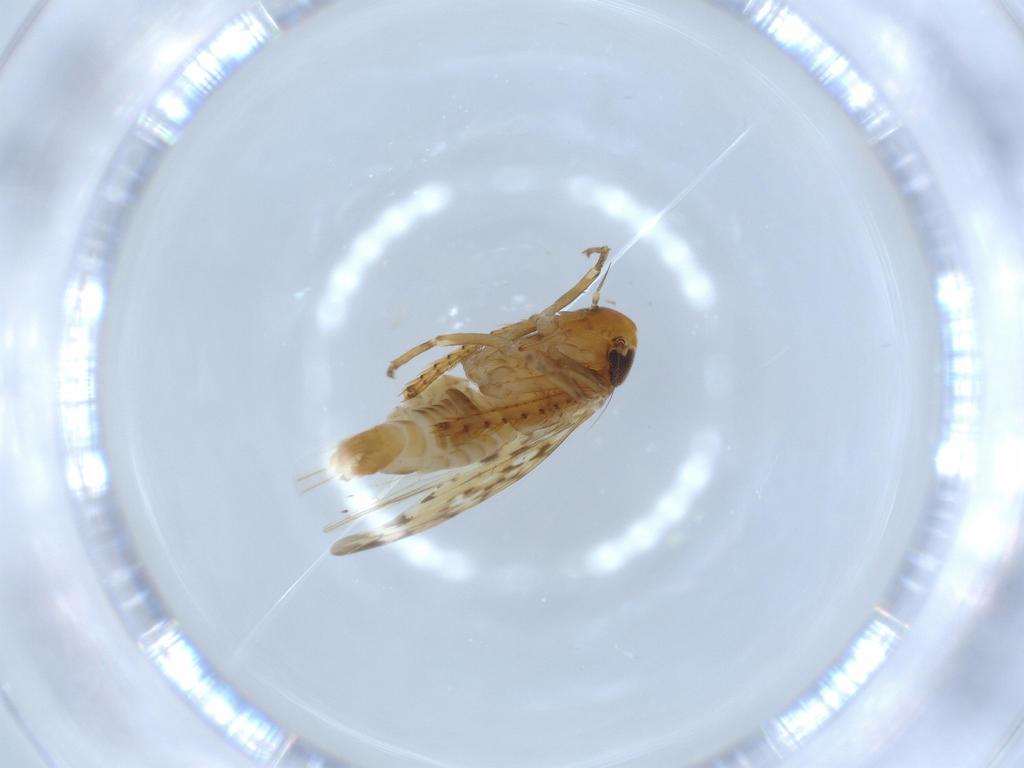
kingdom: Animalia
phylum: Arthropoda
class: Insecta
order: Hemiptera
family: Cicadellidae
